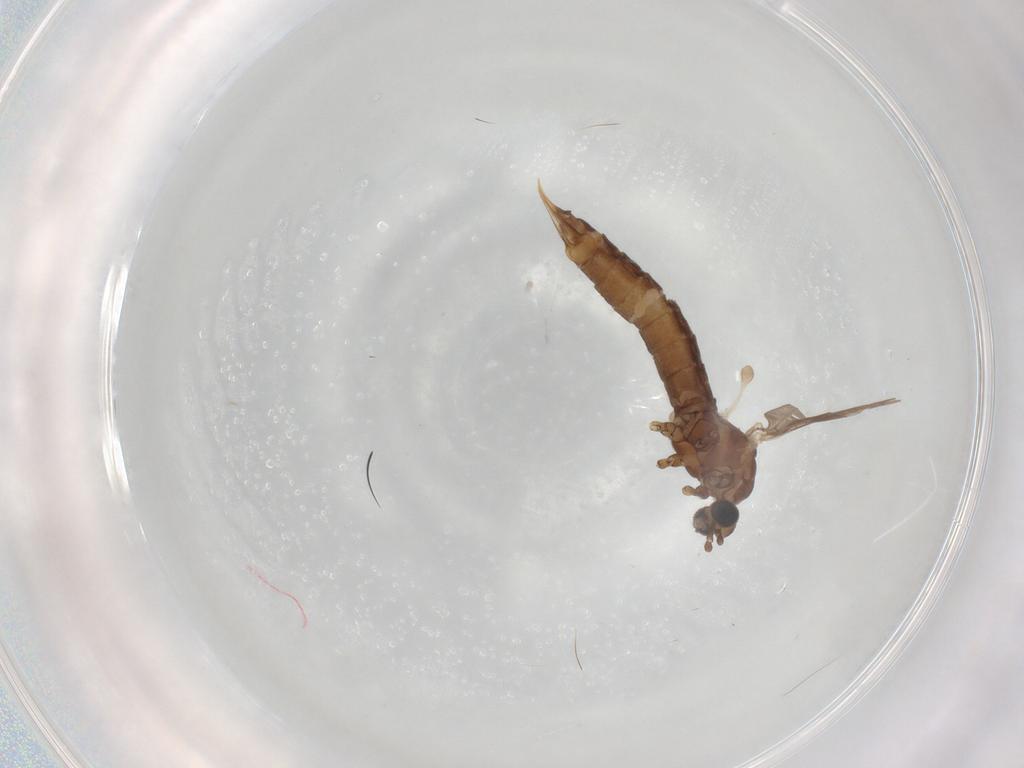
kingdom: Animalia
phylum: Arthropoda
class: Insecta
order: Diptera
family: Limoniidae
